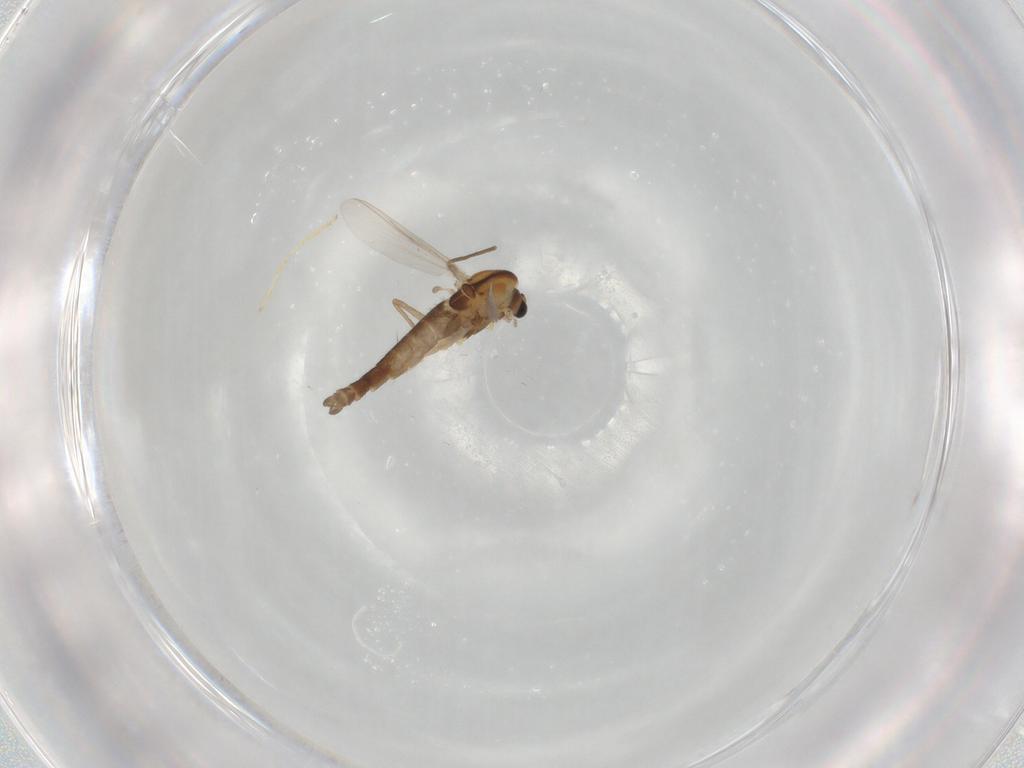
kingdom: Animalia
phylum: Arthropoda
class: Insecta
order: Diptera
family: Chironomidae
